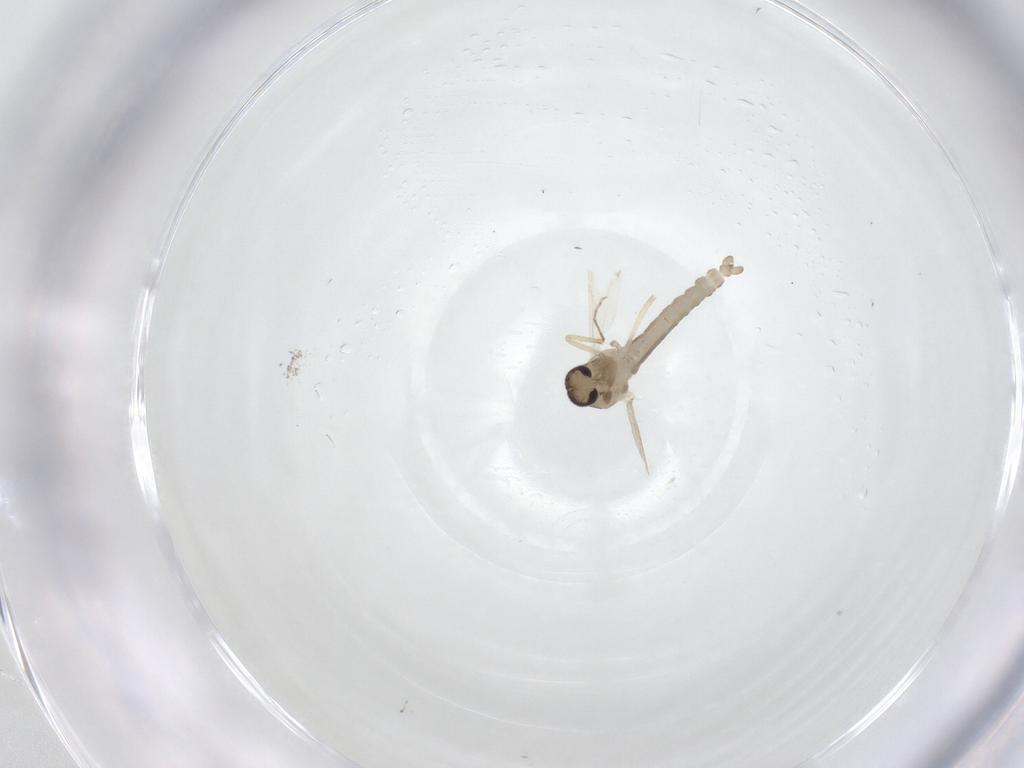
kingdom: Animalia
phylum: Arthropoda
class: Insecta
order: Diptera
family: Ceratopogonidae
